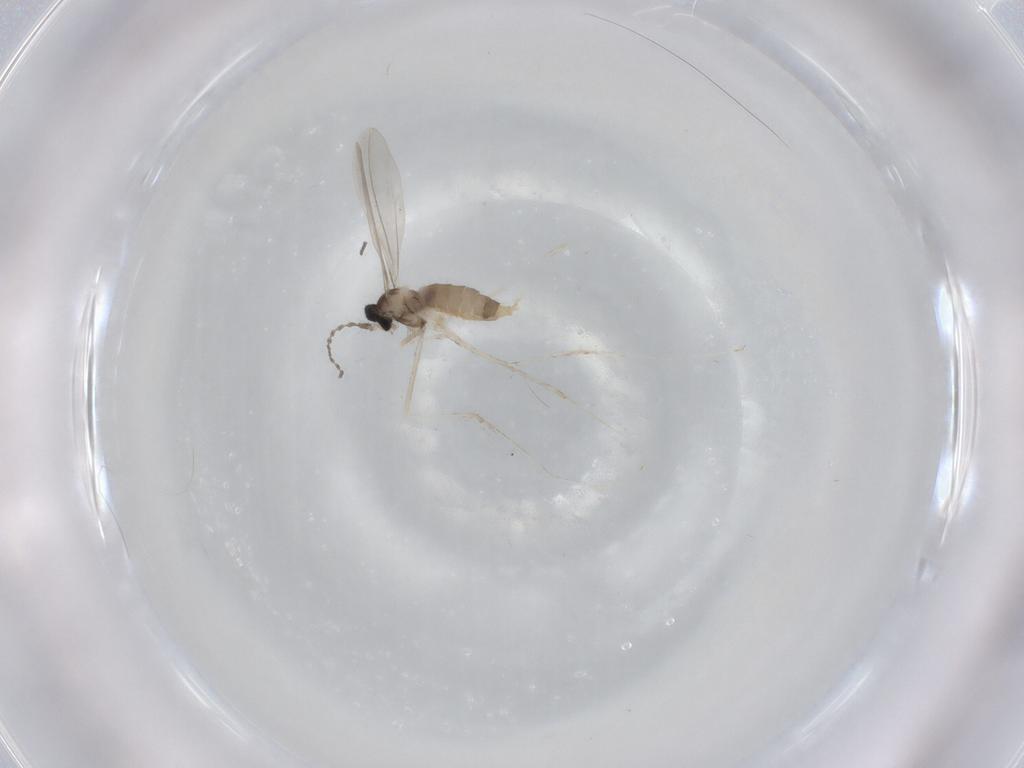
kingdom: Animalia
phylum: Arthropoda
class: Insecta
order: Diptera
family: Cecidomyiidae
